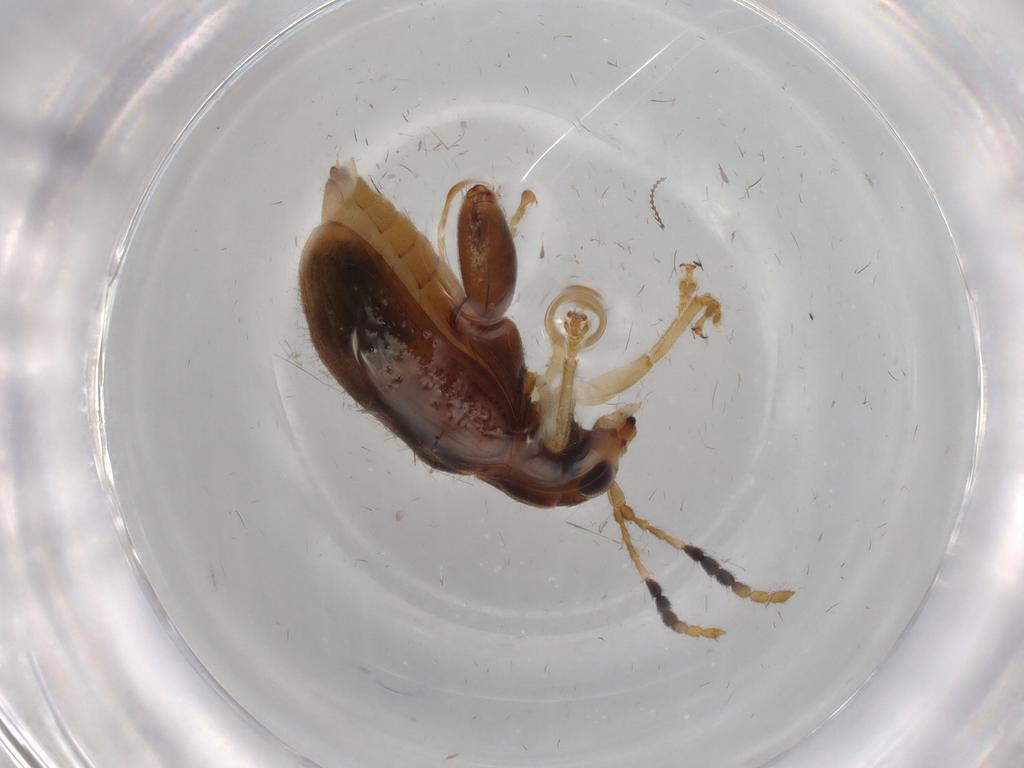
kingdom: Animalia
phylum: Arthropoda
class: Insecta
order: Coleoptera
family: Chrysomelidae
